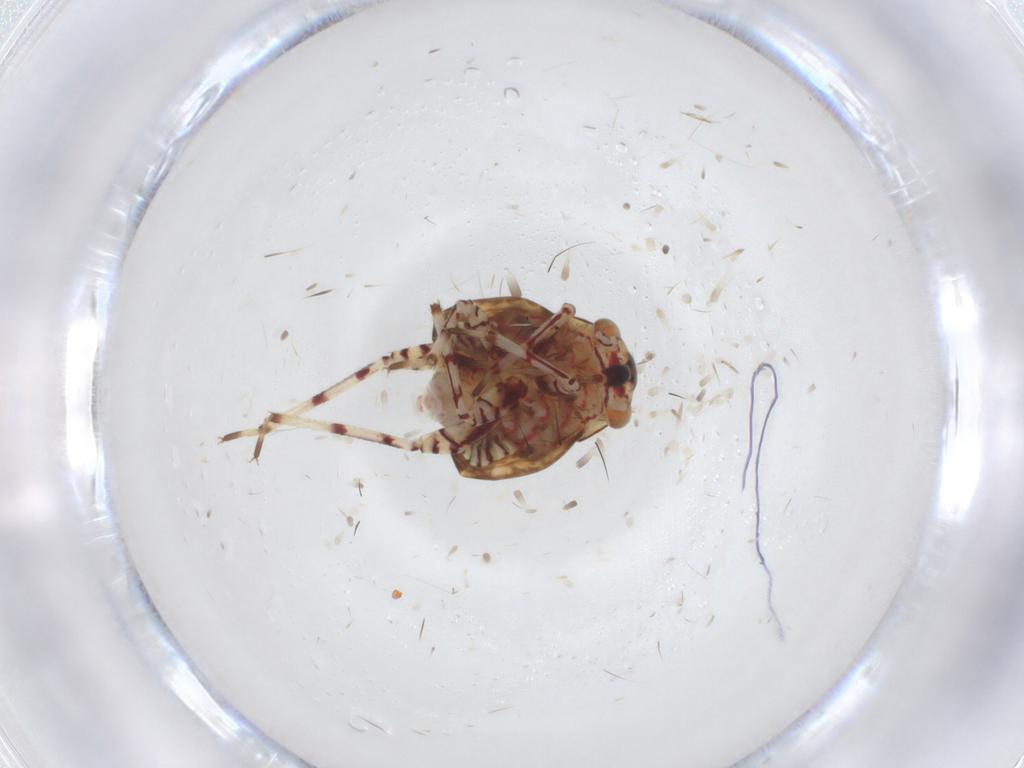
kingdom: Animalia
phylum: Arthropoda
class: Insecta
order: Hemiptera
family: Miridae
